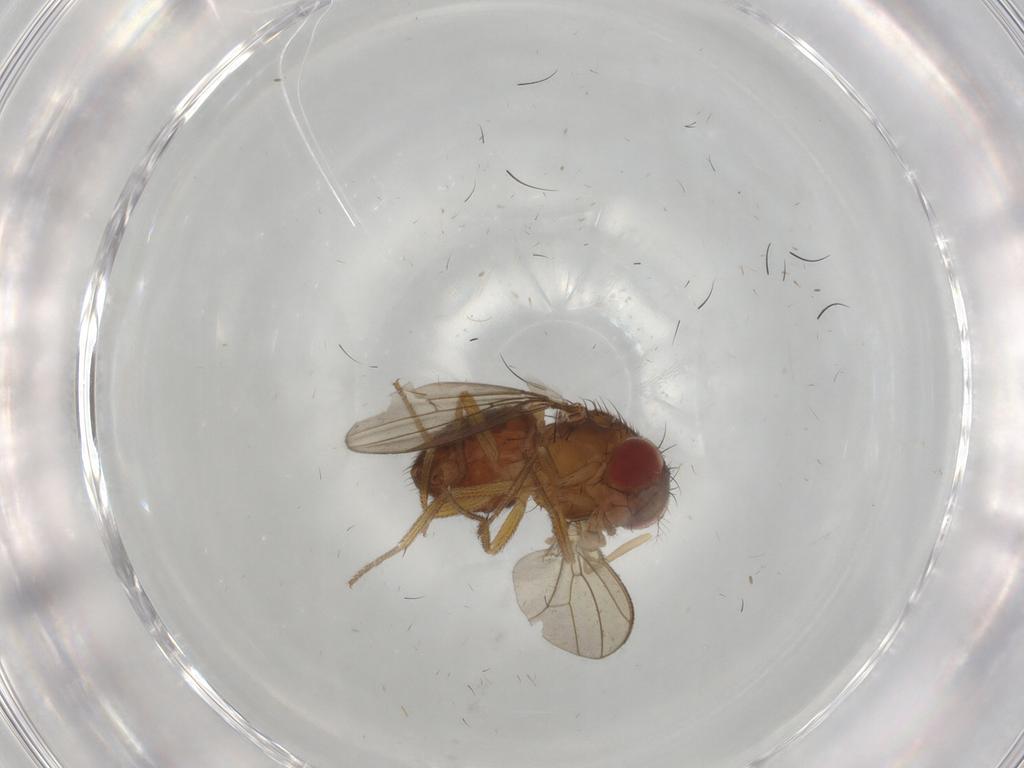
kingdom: Animalia
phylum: Arthropoda
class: Insecta
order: Diptera
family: Drosophilidae
